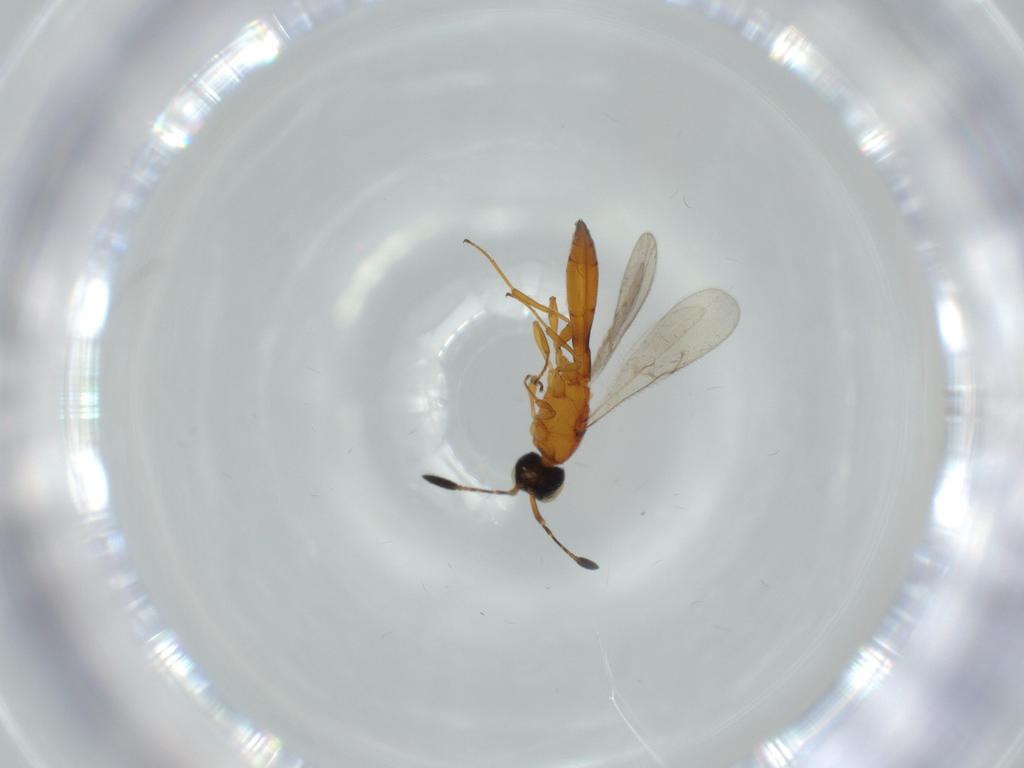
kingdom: Animalia
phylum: Arthropoda
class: Insecta
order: Hymenoptera
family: Scelionidae
